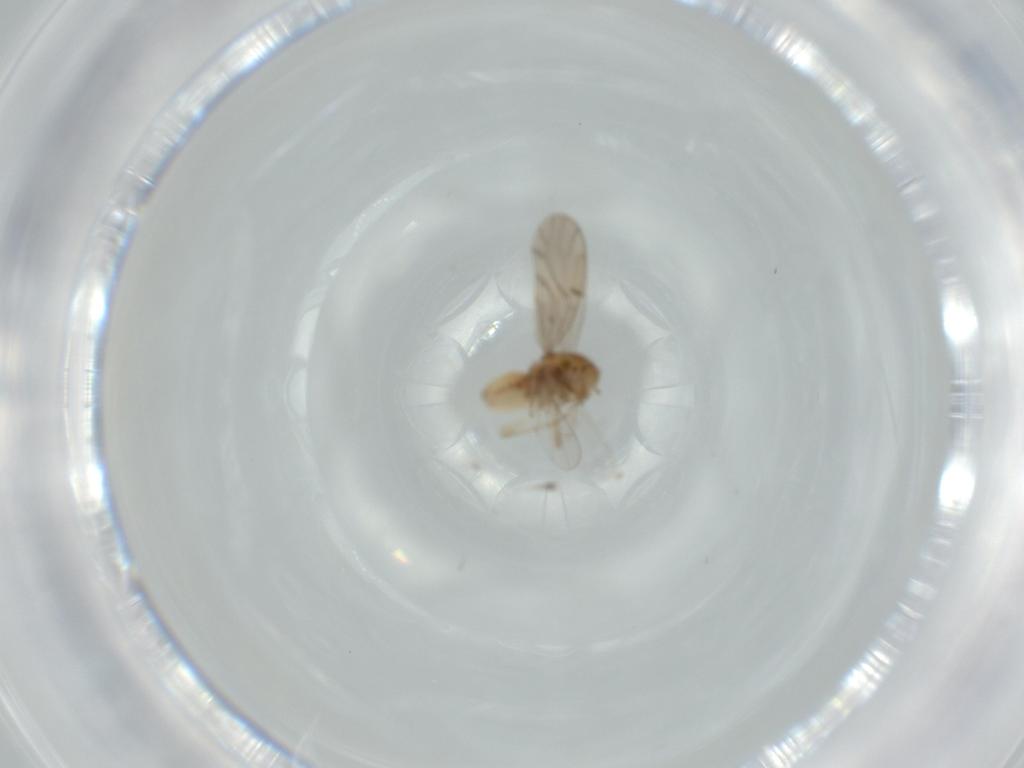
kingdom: Animalia
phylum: Arthropoda
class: Insecta
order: Psocodea
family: Ectopsocidae
